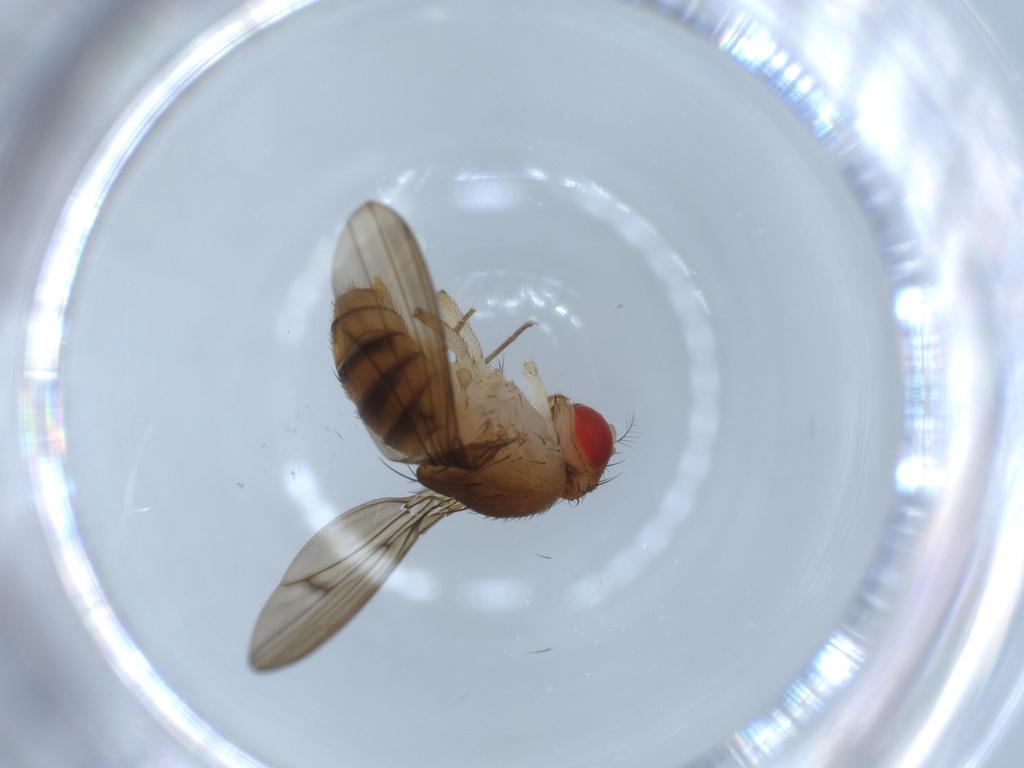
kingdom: Animalia
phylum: Arthropoda
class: Insecta
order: Diptera
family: Drosophilidae
